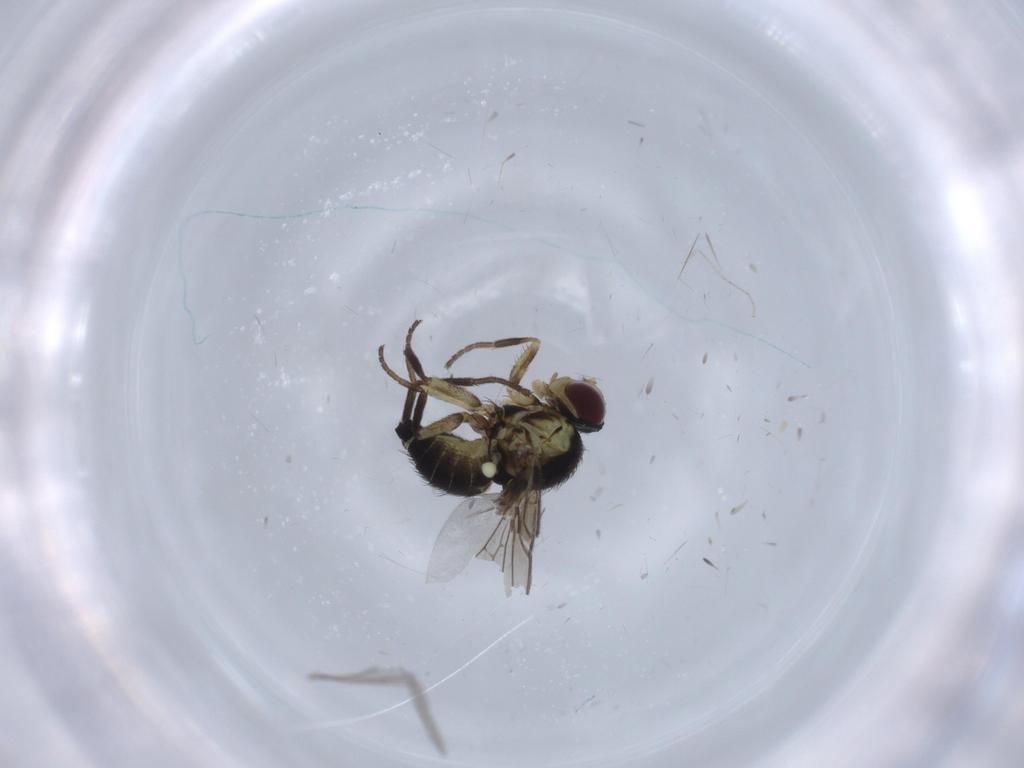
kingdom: Animalia
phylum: Arthropoda
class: Insecta
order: Diptera
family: Agromyzidae
